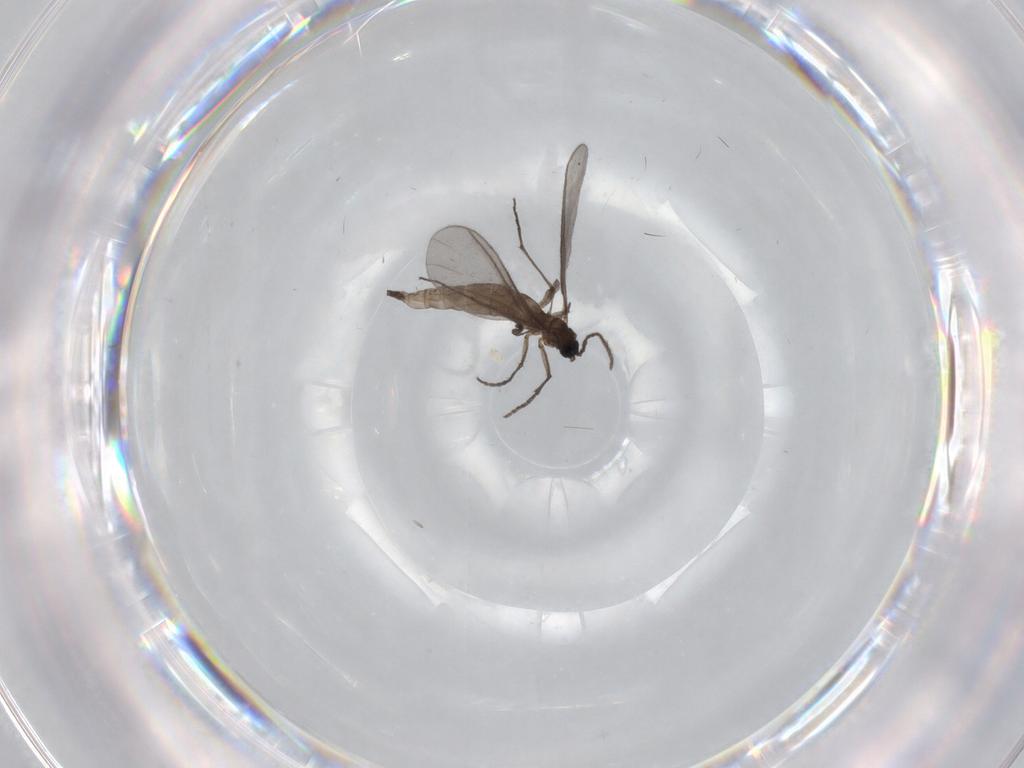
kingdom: Animalia
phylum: Arthropoda
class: Insecta
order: Diptera
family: Sciaridae
